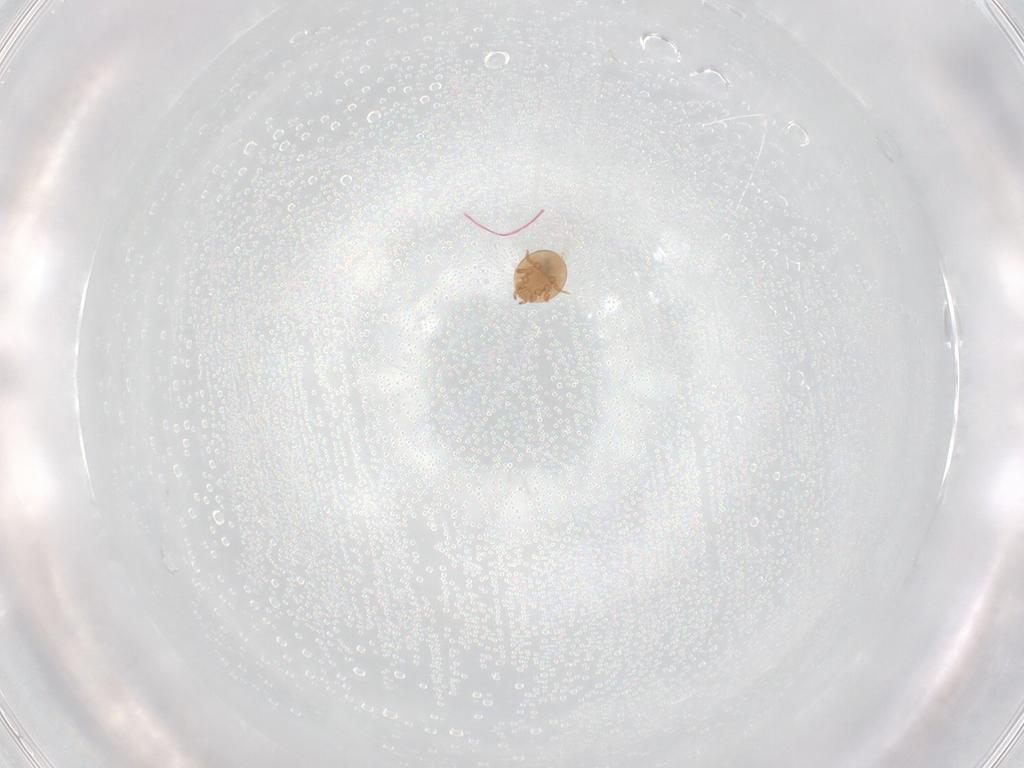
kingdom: Animalia
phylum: Arthropoda
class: Arachnida
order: Mesostigmata
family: Trematuridae
